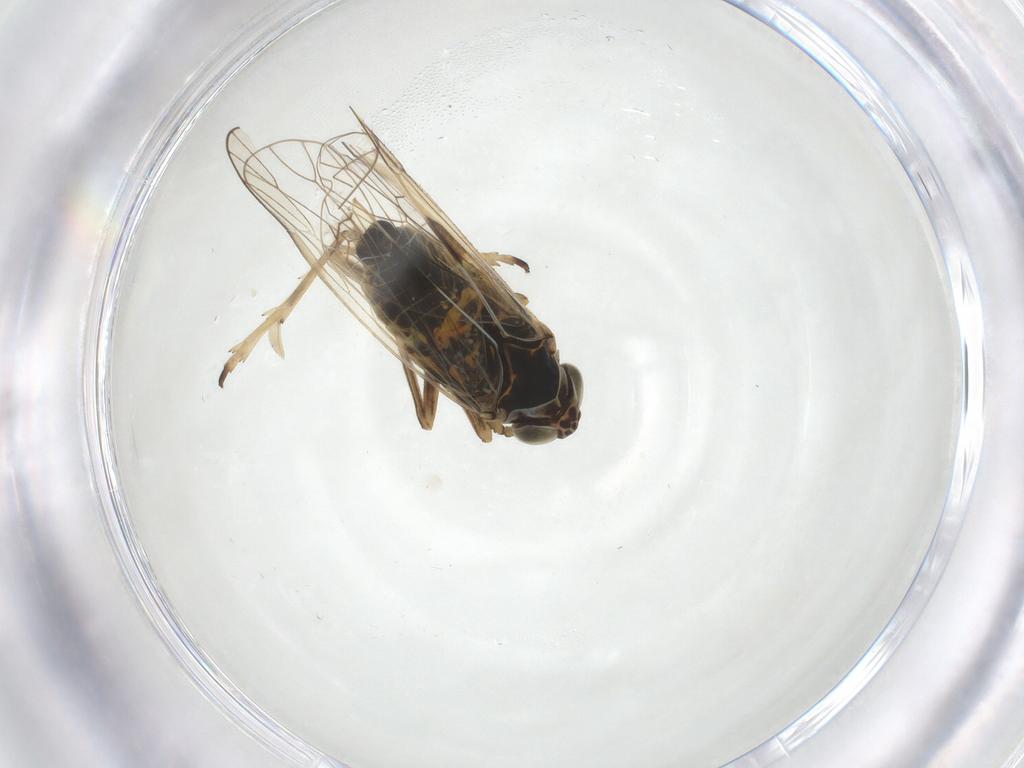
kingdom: Animalia
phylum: Arthropoda
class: Insecta
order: Hemiptera
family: Delphacidae
